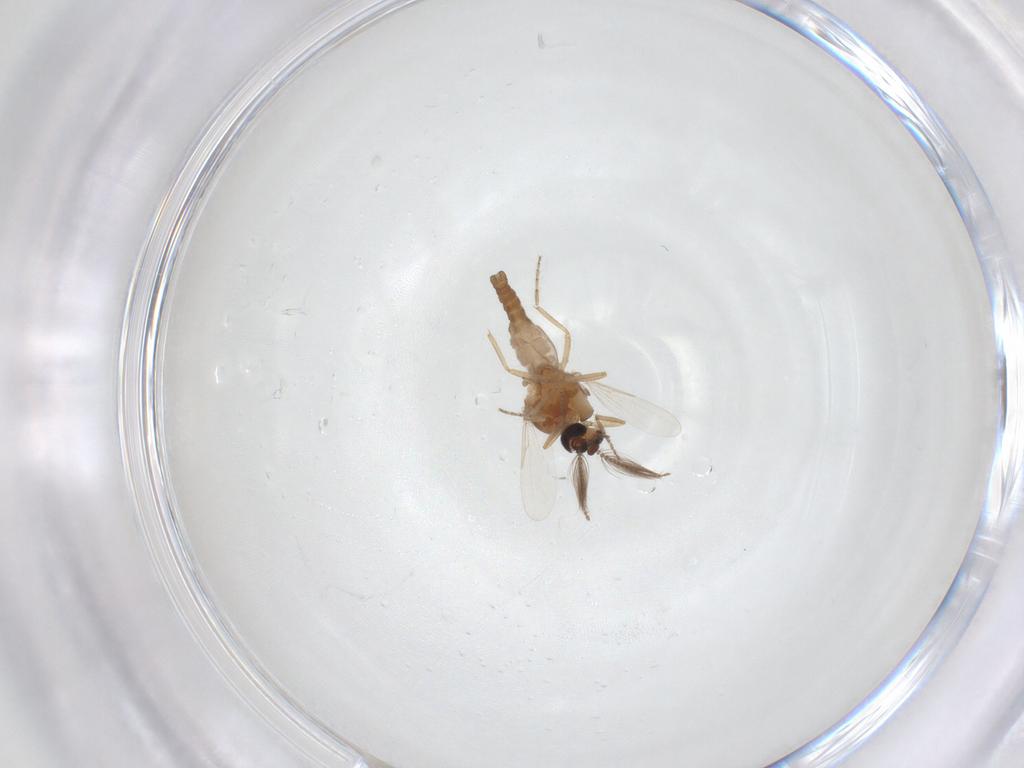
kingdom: Animalia
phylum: Arthropoda
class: Insecta
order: Diptera
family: Ceratopogonidae
